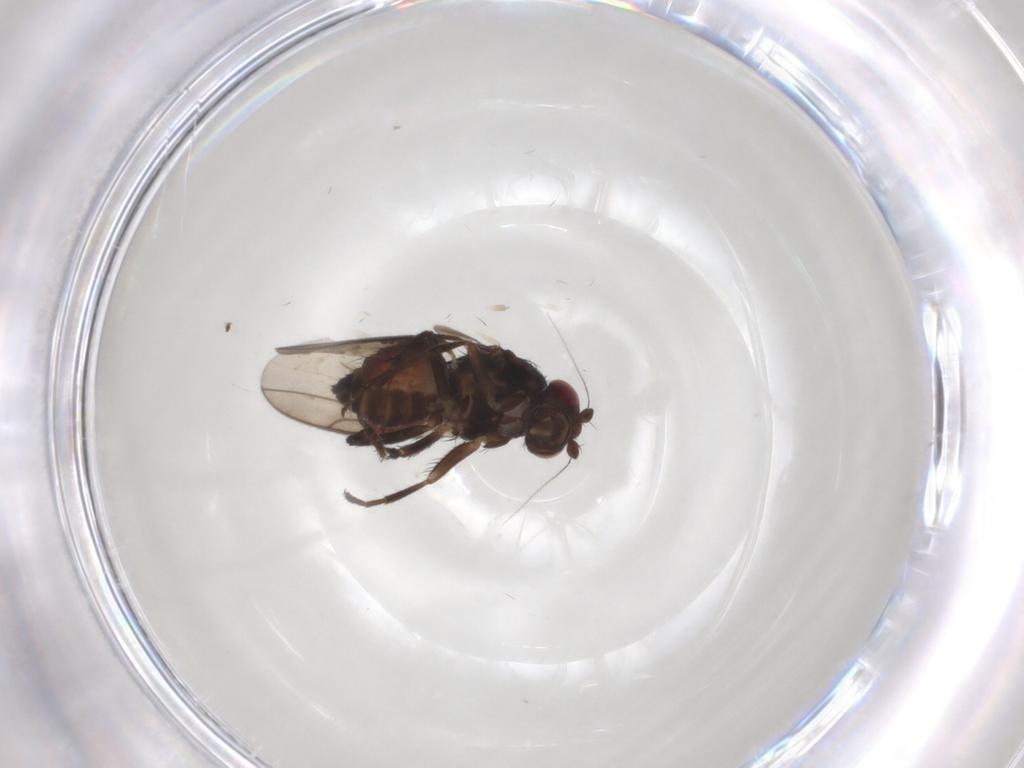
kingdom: Animalia
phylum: Arthropoda
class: Insecta
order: Diptera
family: Sphaeroceridae
